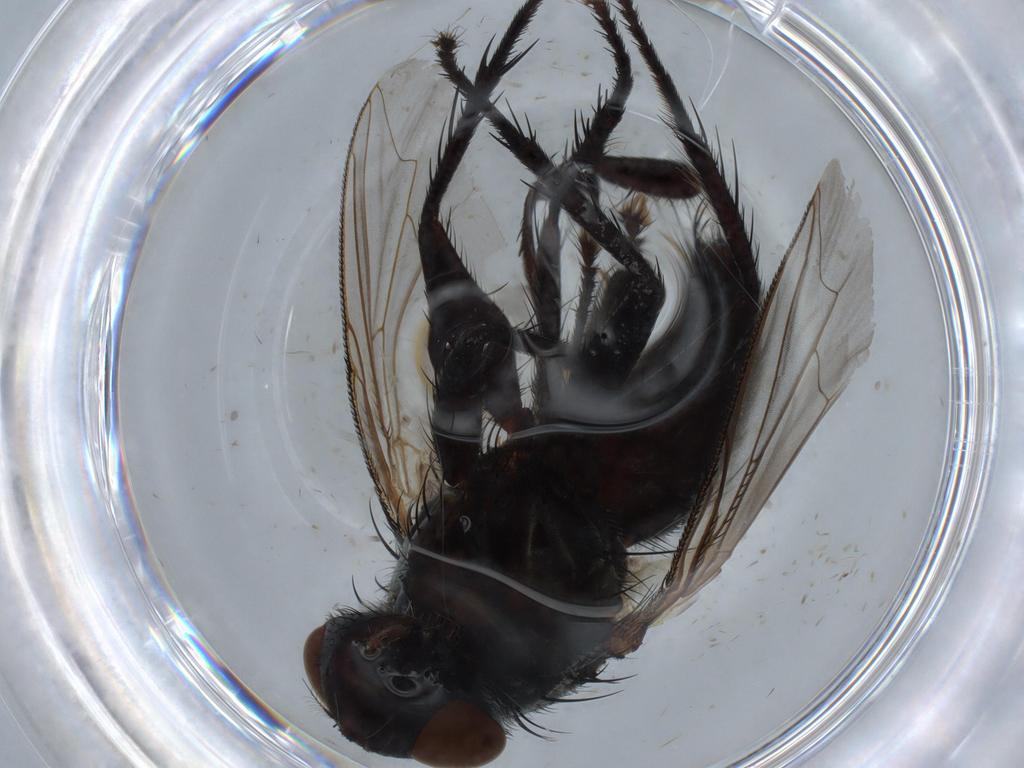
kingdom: Animalia
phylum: Arthropoda
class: Insecta
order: Diptera
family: Sarcophagidae
